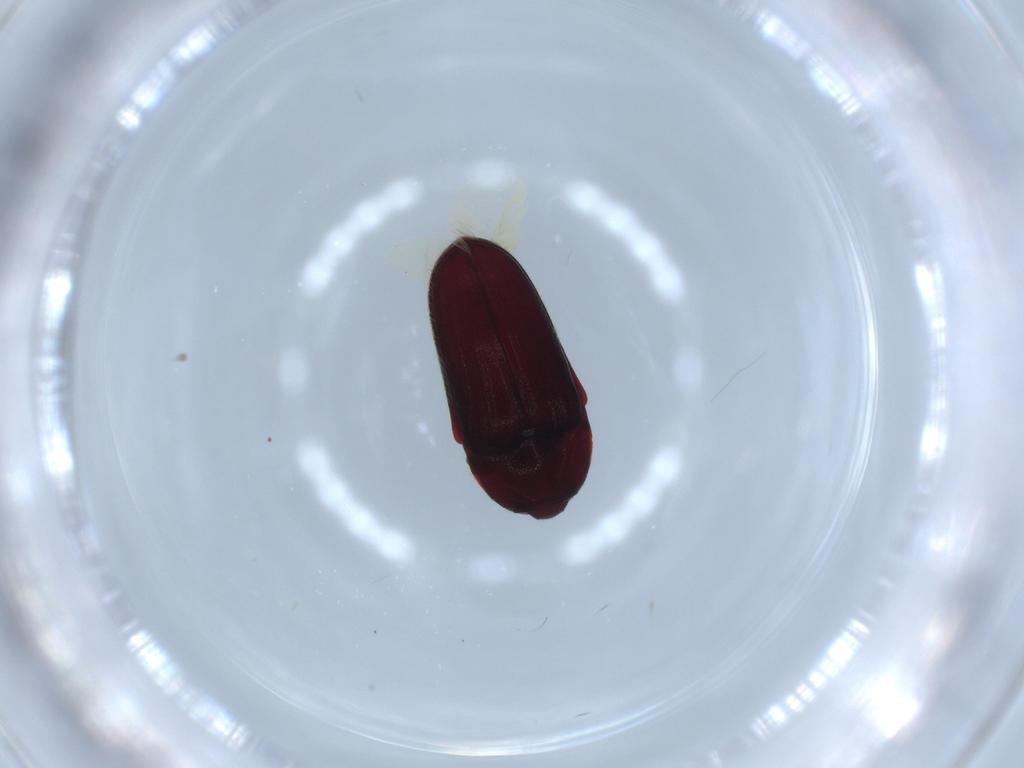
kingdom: Animalia
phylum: Arthropoda
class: Insecta
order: Coleoptera
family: Throscidae
